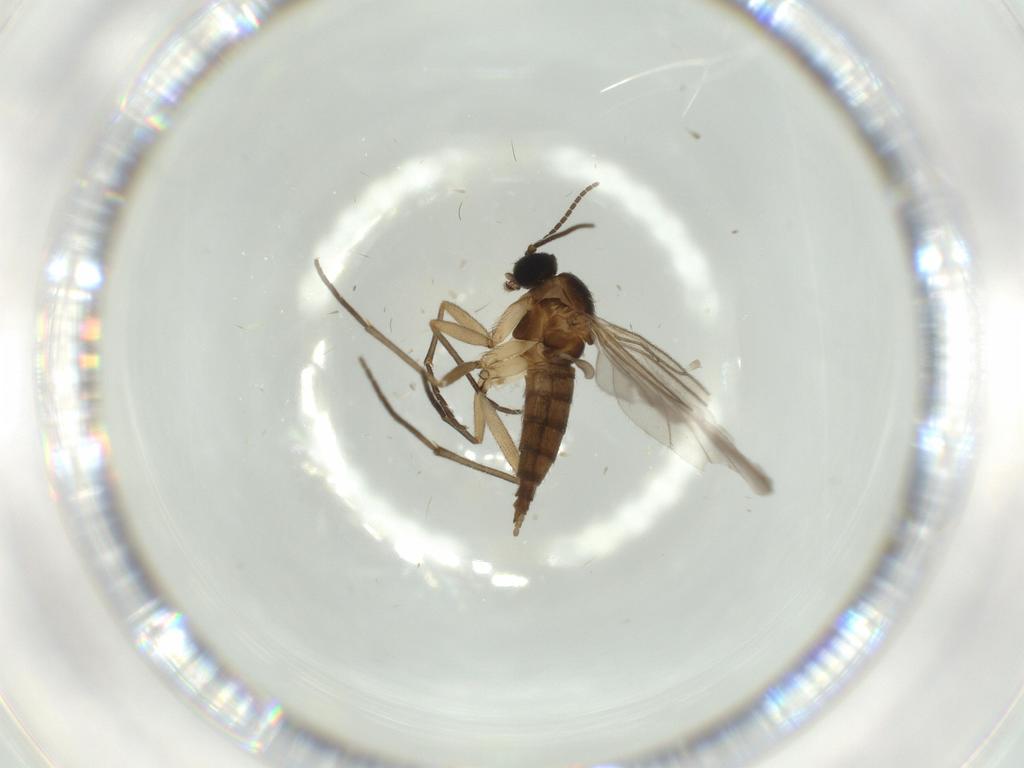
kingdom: Animalia
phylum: Arthropoda
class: Insecta
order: Diptera
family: Sciaridae
